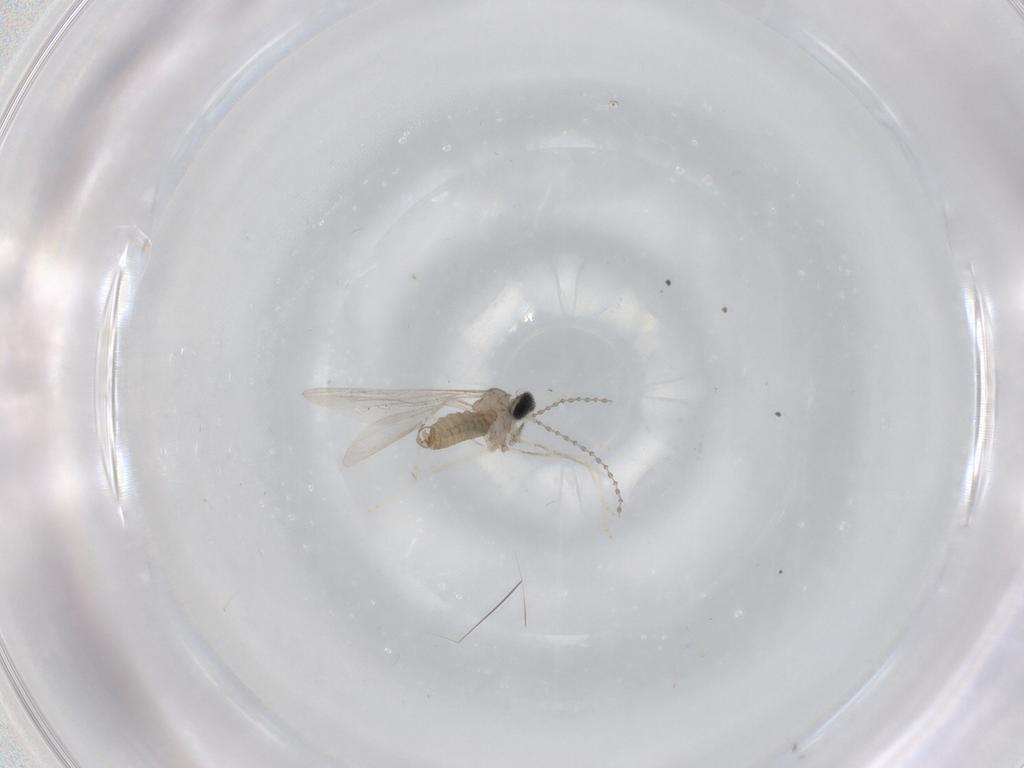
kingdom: Animalia
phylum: Arthropoda
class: Insecta
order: Diptera
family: Cecidomyiidae
